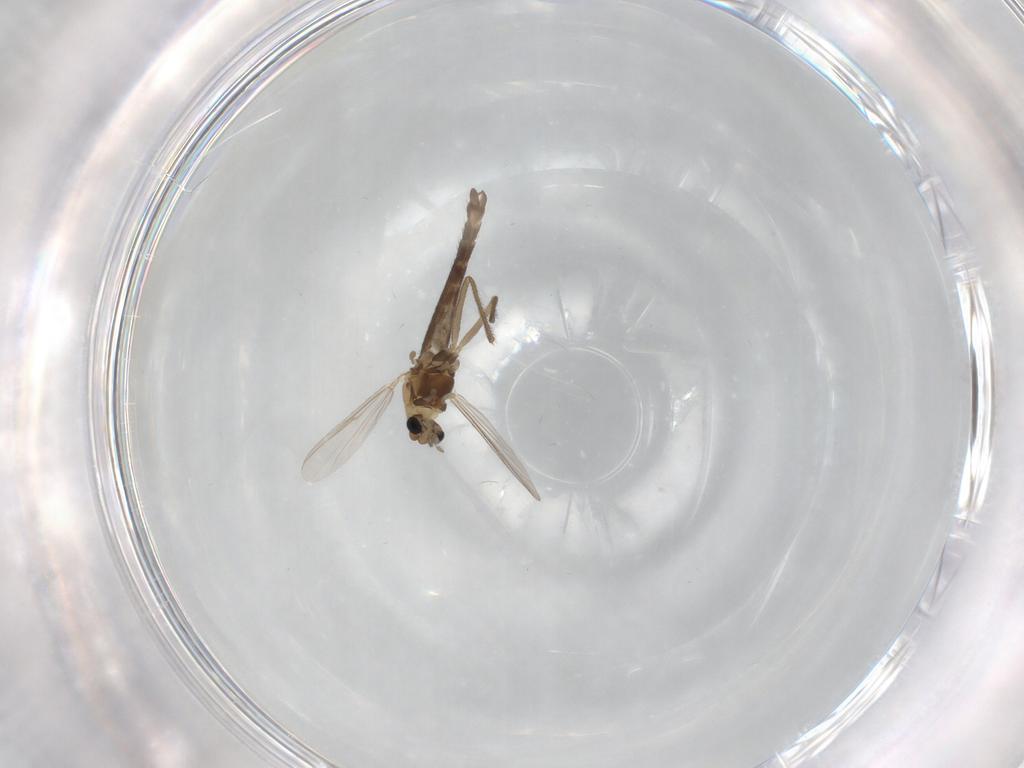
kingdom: Animalia
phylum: Arthropoda
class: Insecta
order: Diptera
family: Chironomidae
